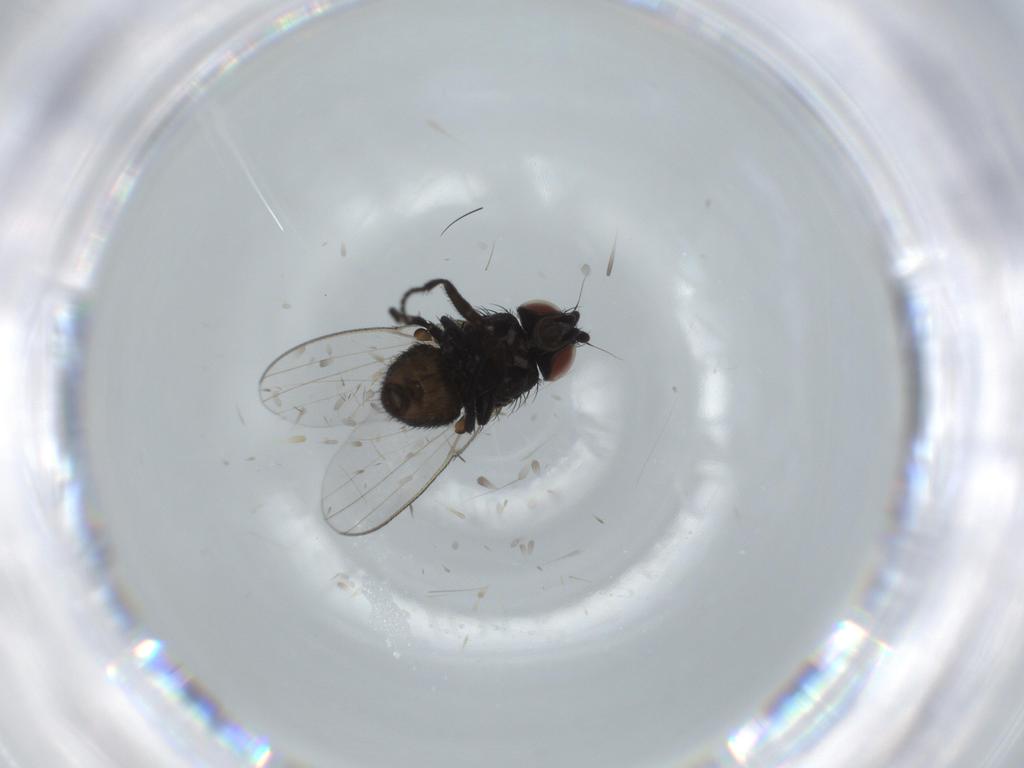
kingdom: Animalia
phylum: Arthropoda
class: Insecta
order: Diptera
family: Milichiidae
